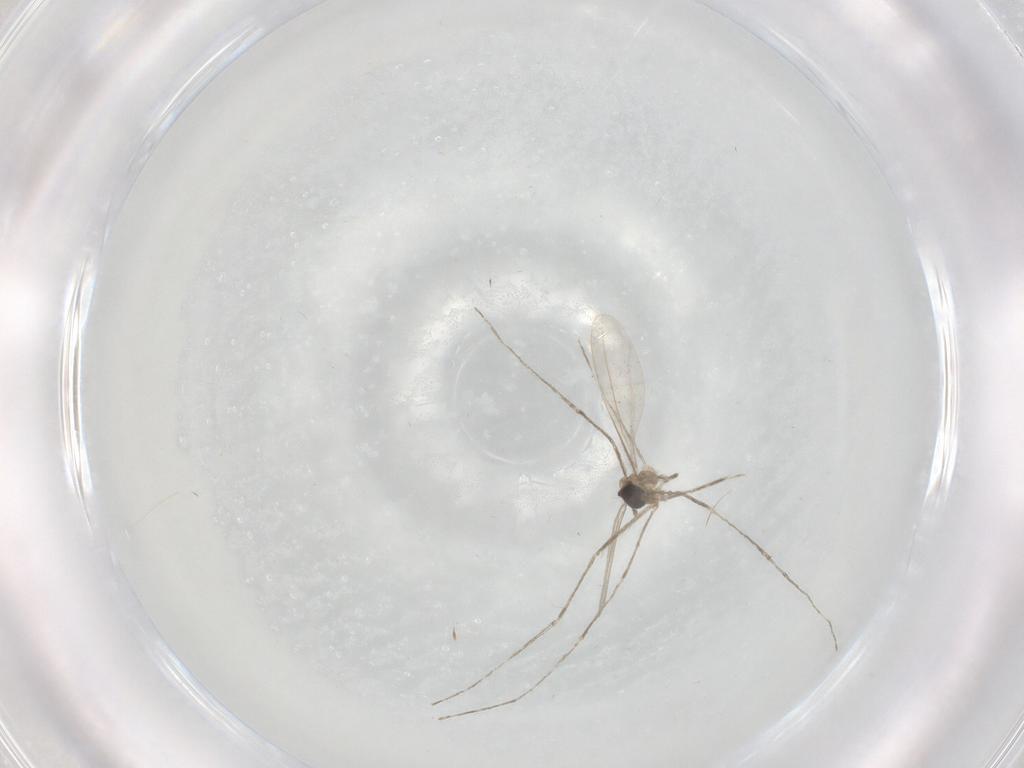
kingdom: Animalia
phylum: Arthropoda
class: Insecta
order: Diptera
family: Cecidomyiidae
